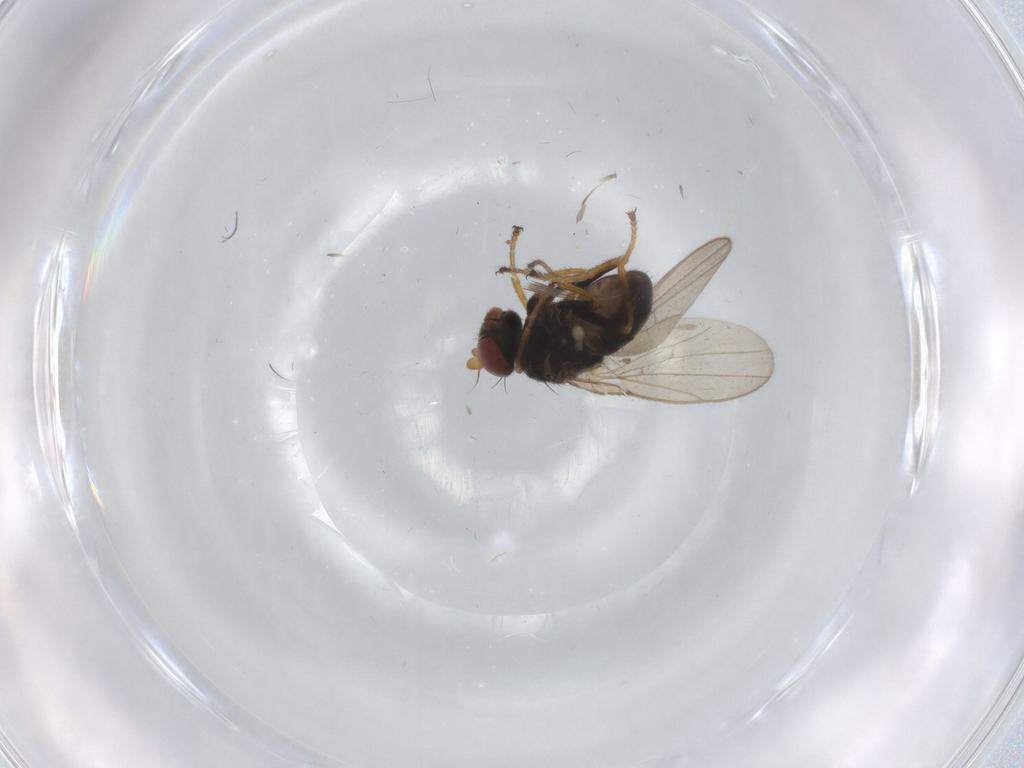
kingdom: Animalia
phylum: Arthropoda
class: Insecta
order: Diptera
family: Ephydridae
